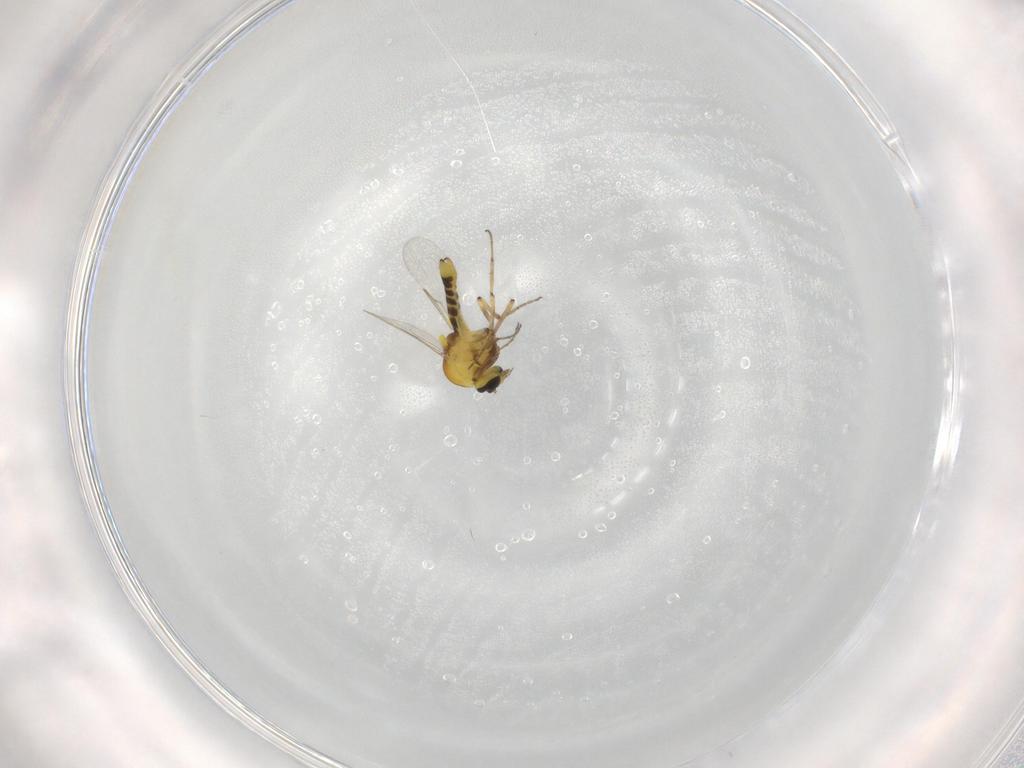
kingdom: Animalia
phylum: Arthropoda
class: Insecta
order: Diptera
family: Ceratopogonidae
